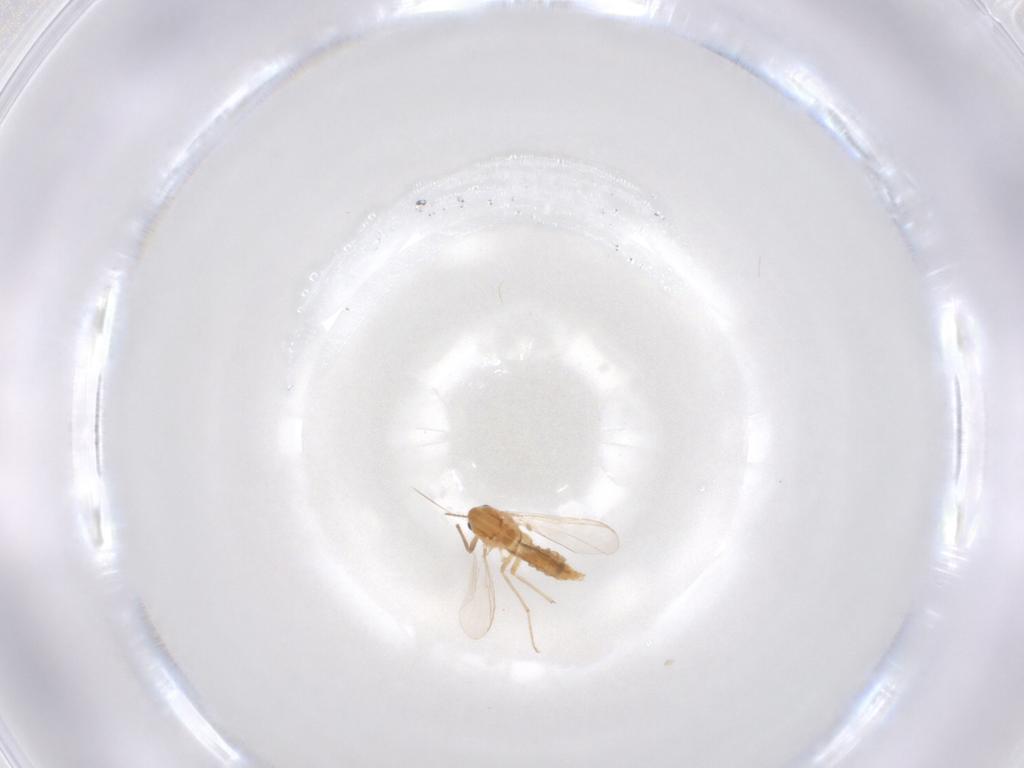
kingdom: Animalia
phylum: Arthropoda
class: Insecta
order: Diptera
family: Chironomidae
